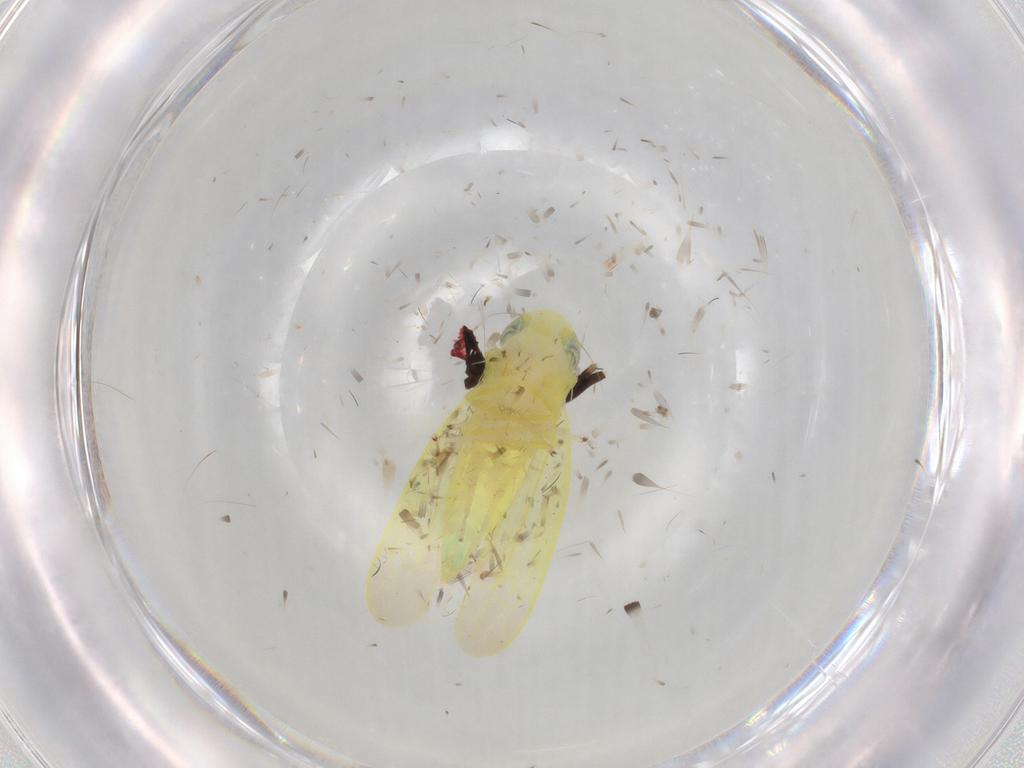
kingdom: Animalia
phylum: Arthropoda
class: Insecta
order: Hemiptera
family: Cicadellidae
